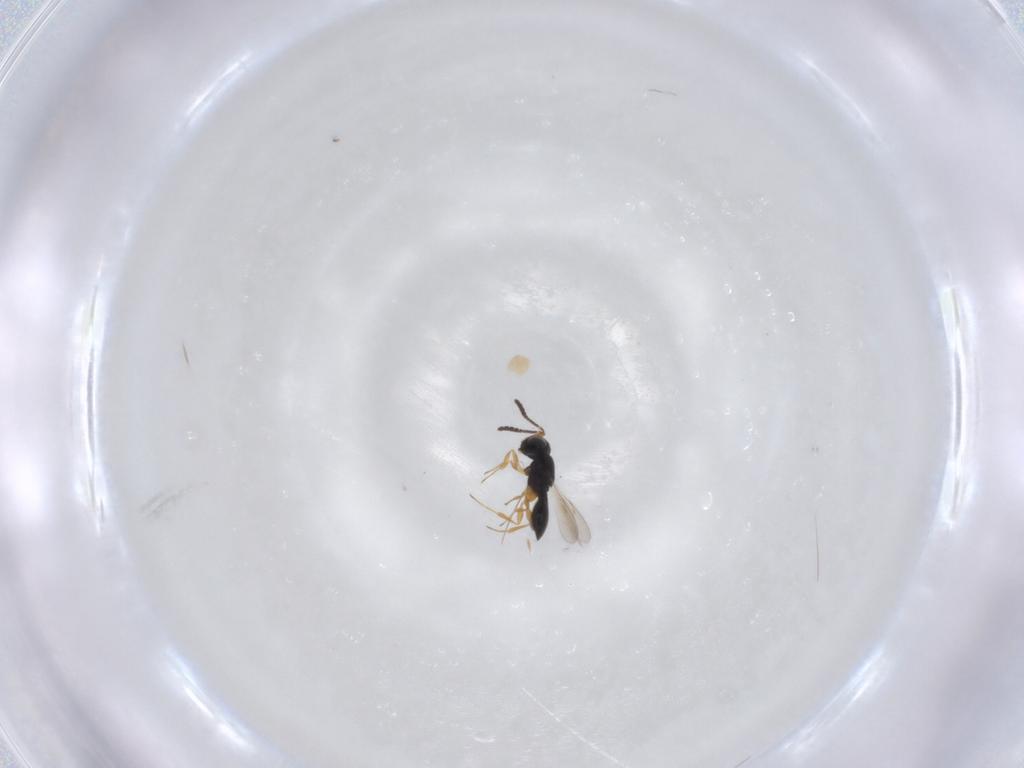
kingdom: Animalia
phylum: Arthropoda
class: Insecta
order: Hymenoptera
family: Scelionidae
